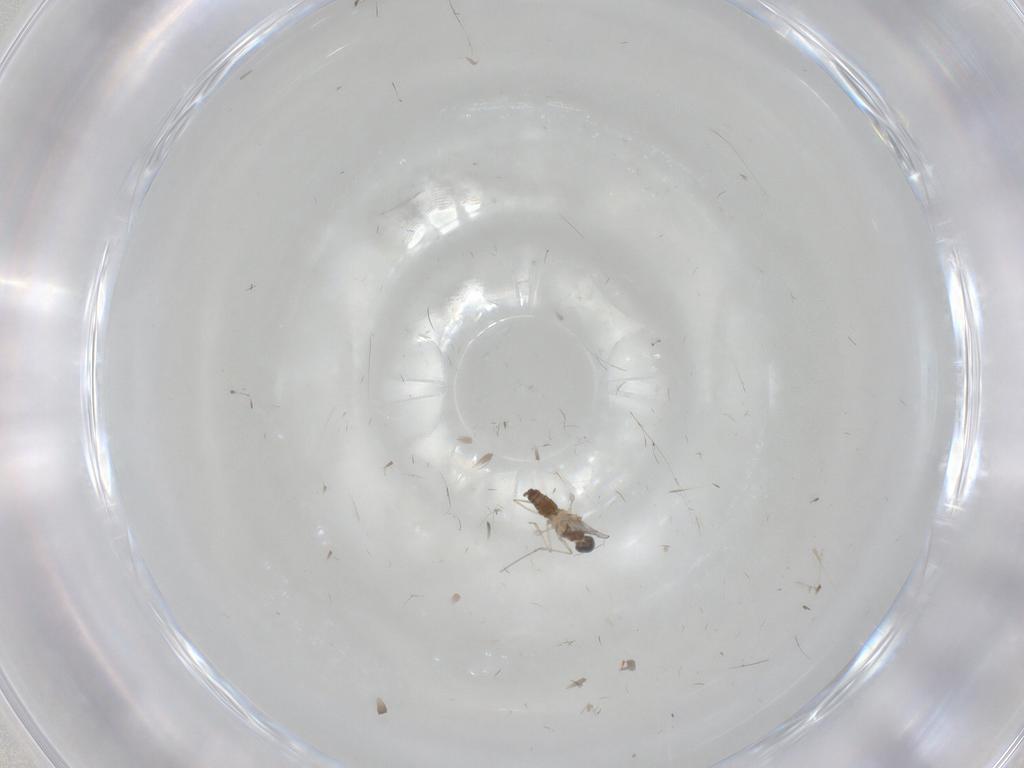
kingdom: Animalia
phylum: Arthropoda
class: Insecta
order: Diptera
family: Cecidomyiidae
